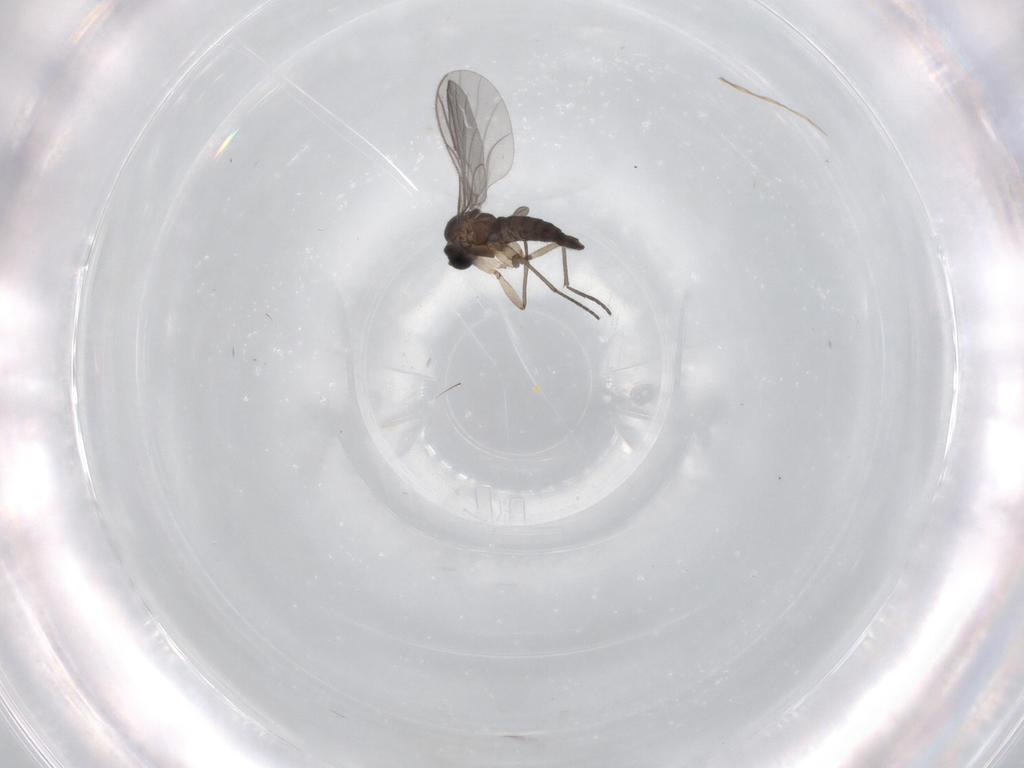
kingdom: Animalia
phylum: Arthropoda
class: Insecta
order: Diptera
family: Sciaridae
